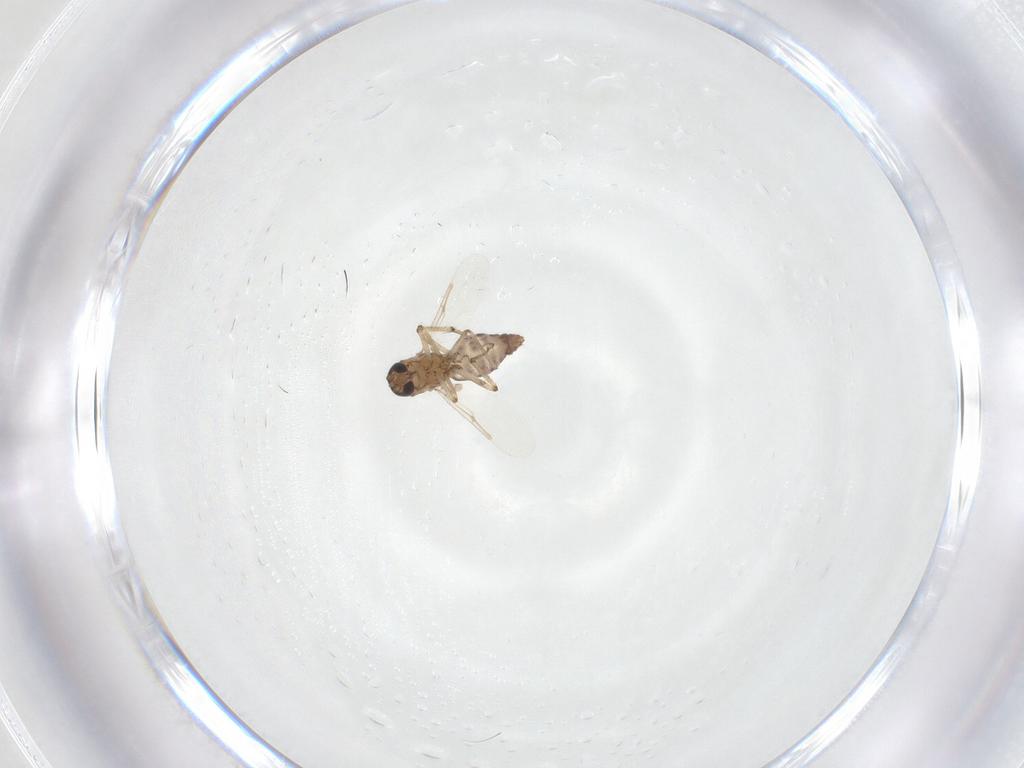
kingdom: Animalia
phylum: Arthropoda
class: Insecta
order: Diptera
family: Ceratopogonidae
